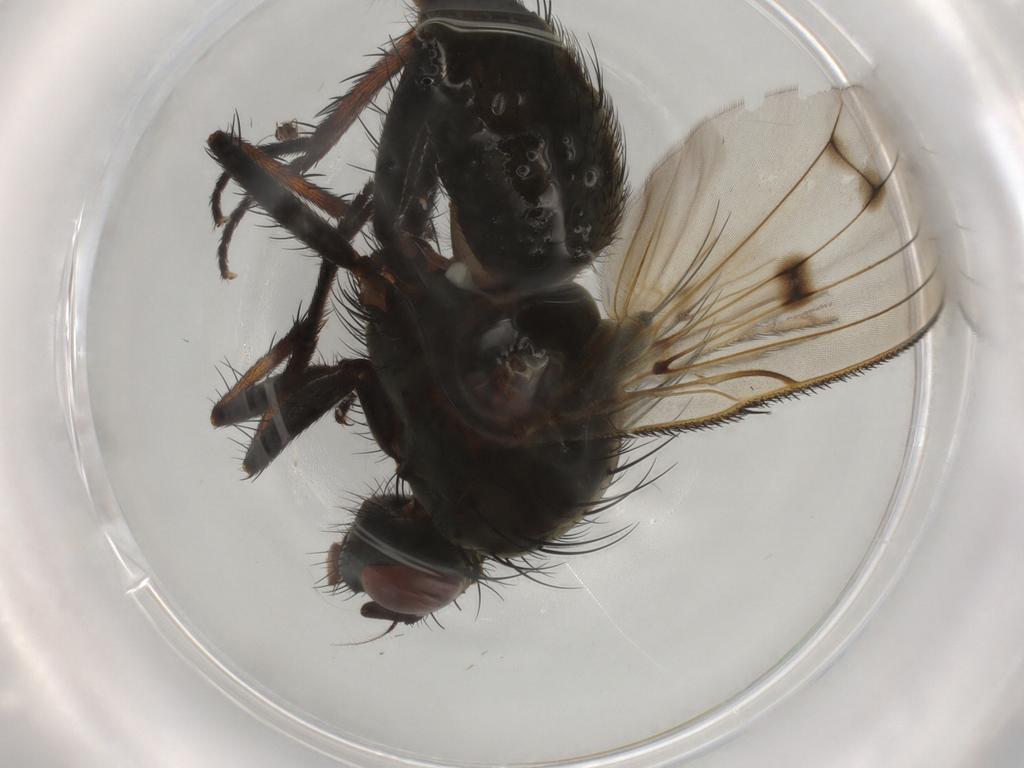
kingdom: Animalia
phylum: Arthropoda
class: Insecta
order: Diptera
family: Anthomyiidae
